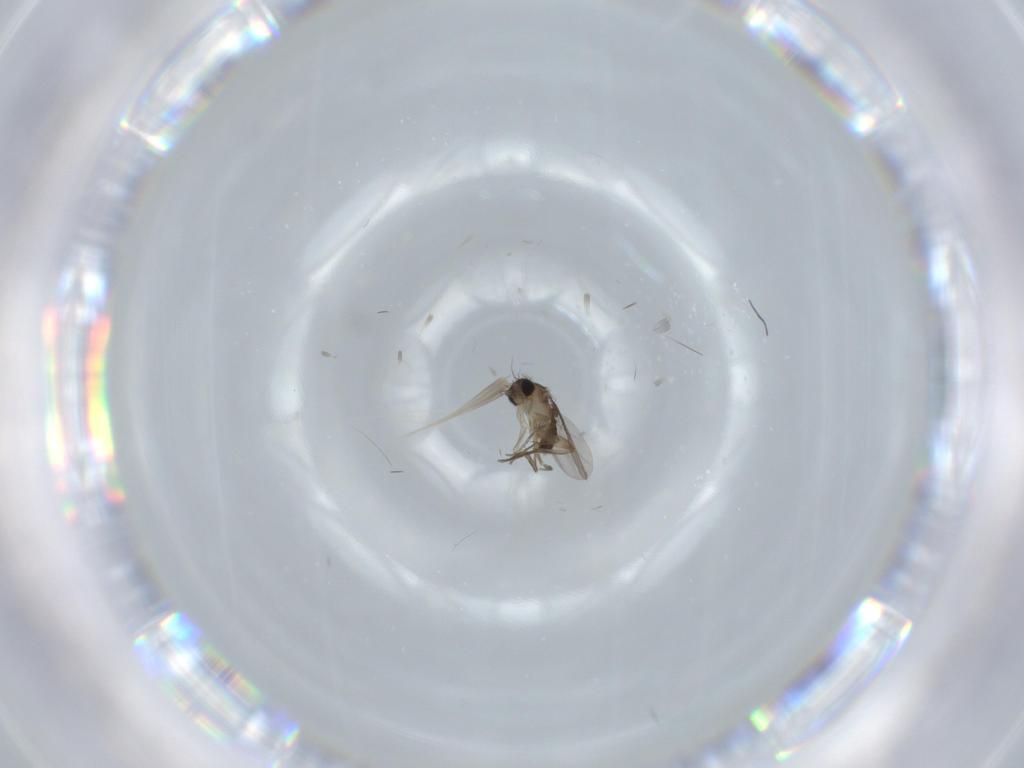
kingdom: Animalia
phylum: Arthropoda
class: Insecta
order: Diptera
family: Phoridae
